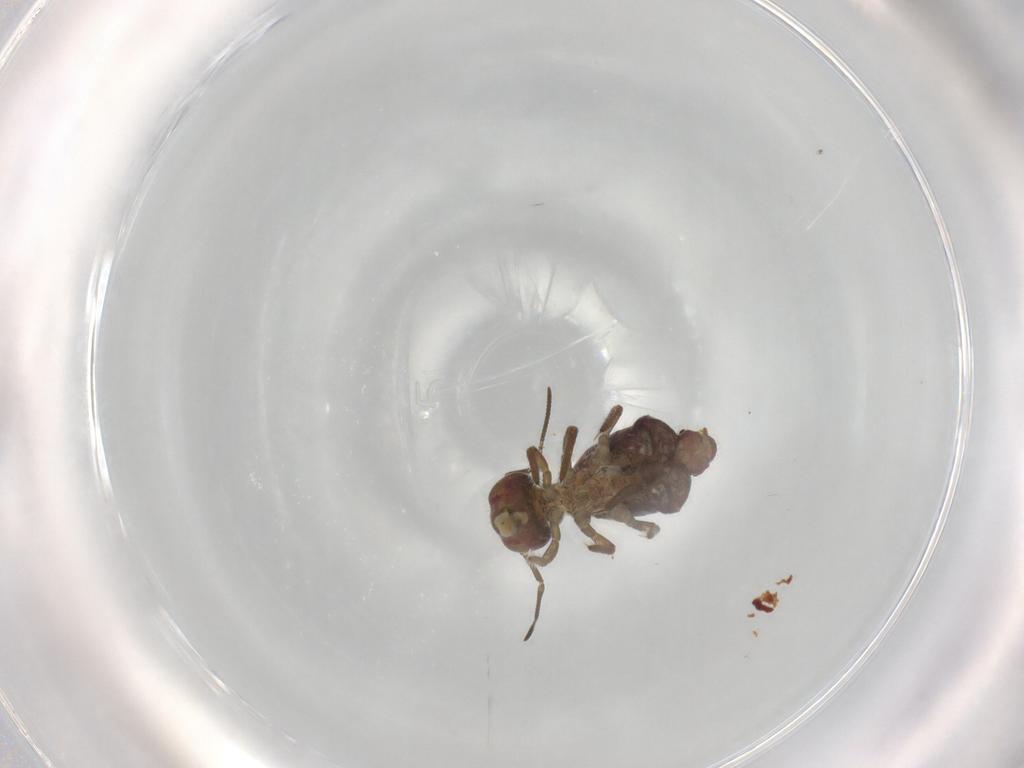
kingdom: Animalia
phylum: Arthropoda
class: Collembola
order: Symphypleona
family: Sminthuridae
